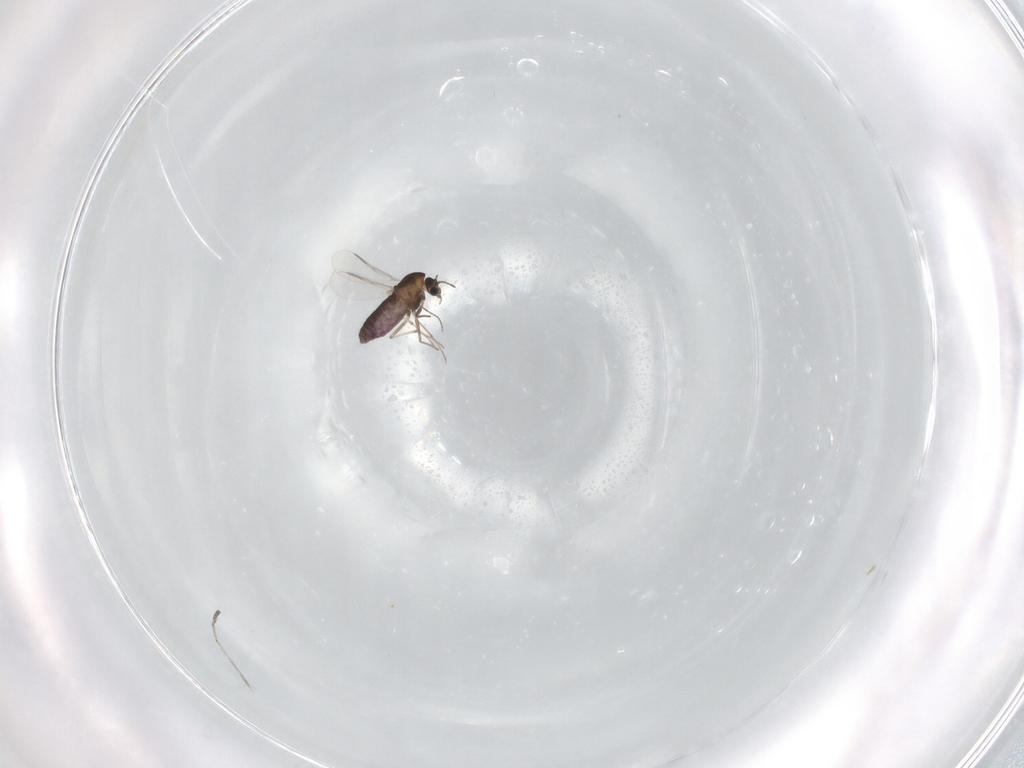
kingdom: Animalia
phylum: Arthropoda
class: Insecta
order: Diptera
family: Chironomidae
